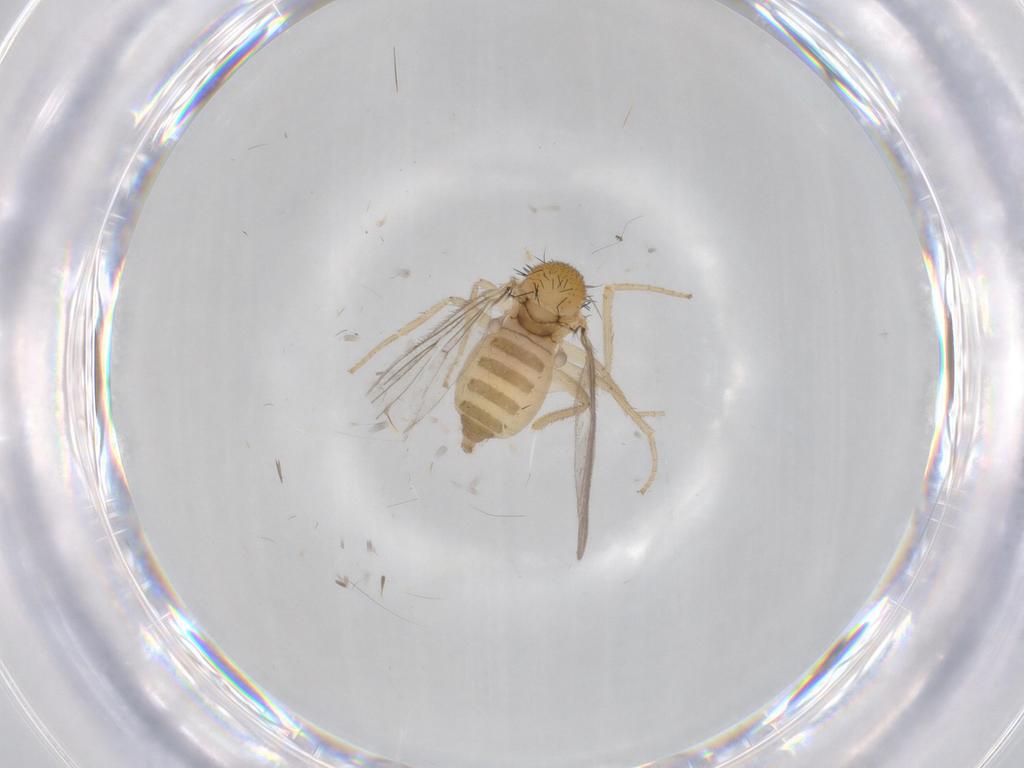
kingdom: Animalia
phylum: Arthropoda
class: Insecta
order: Diptera
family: Hybotidae
